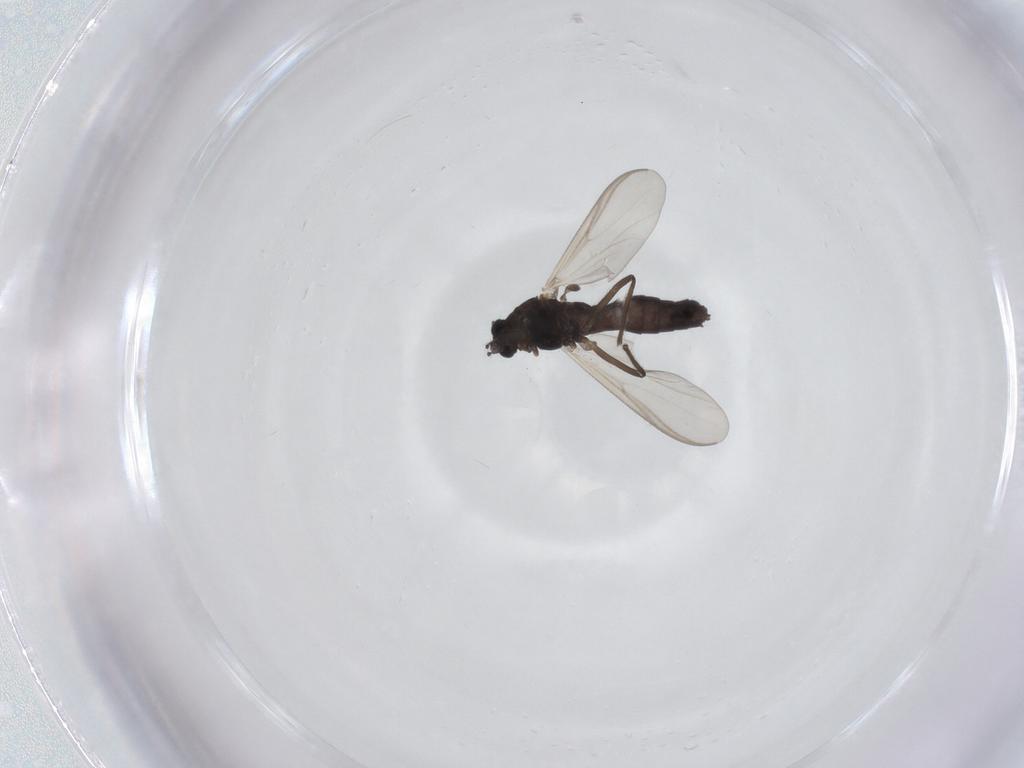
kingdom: Animalia
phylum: Arthropoda
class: Insecta
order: Diptera
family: Chironomidae
